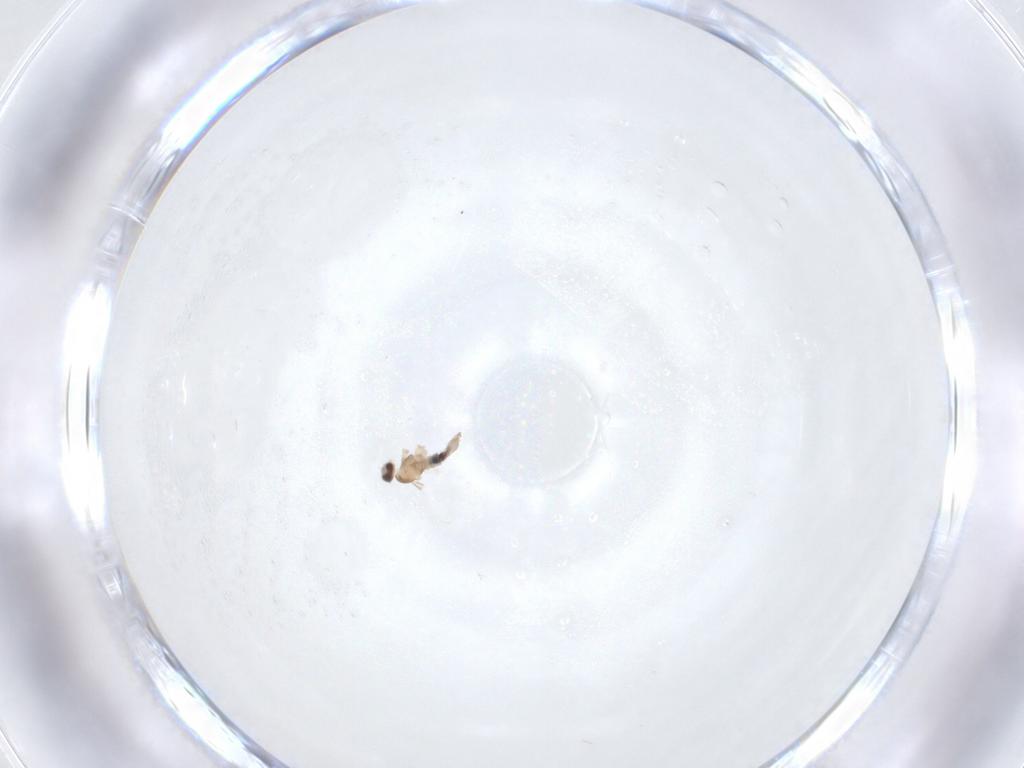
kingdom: Animalia
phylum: Arthropoda
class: Insecta
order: Diptera
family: Cecidomyiidae
